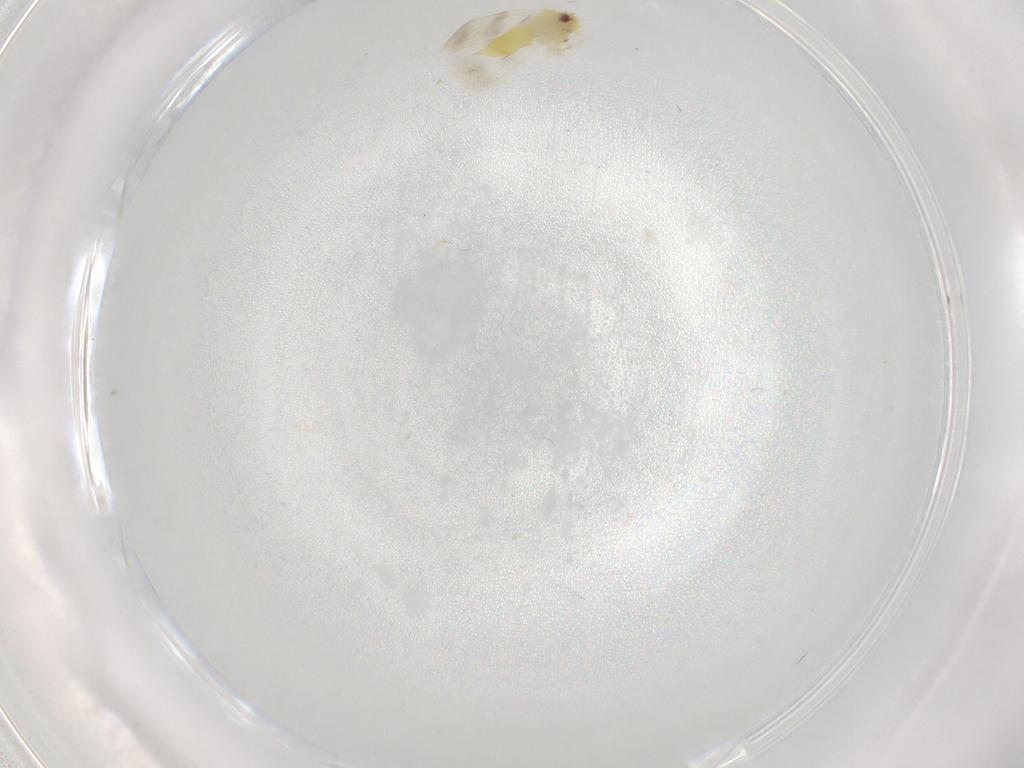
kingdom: Animalia
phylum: Arthropoda
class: Insecta
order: Hemiptera
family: Aleyrodidae
